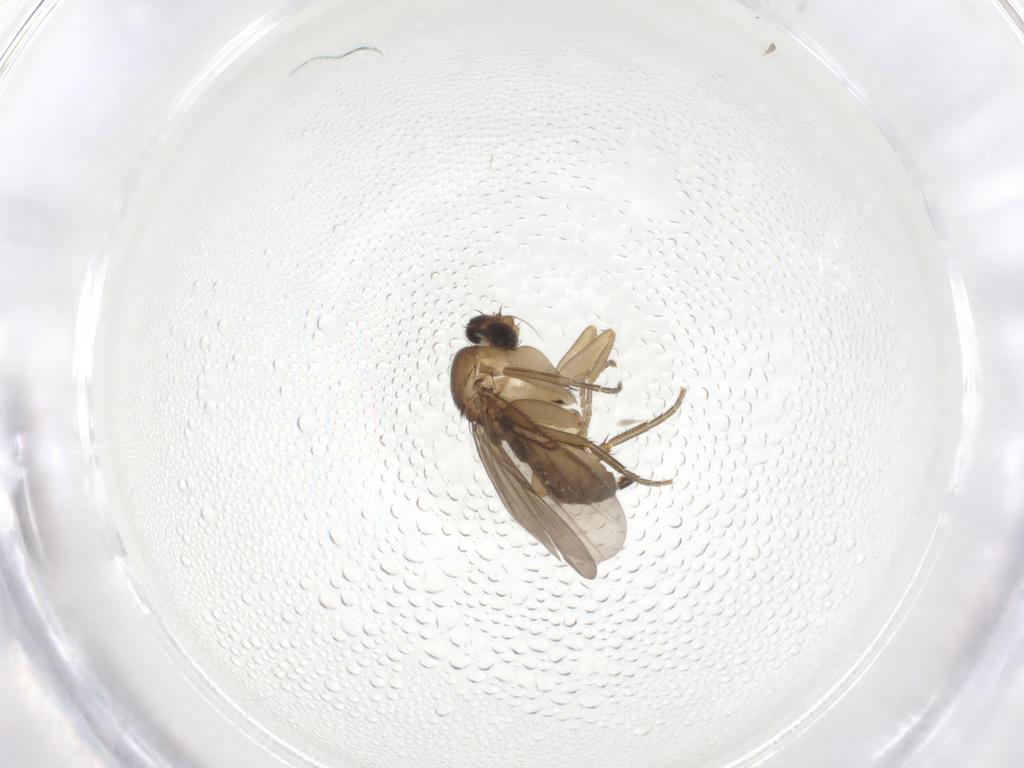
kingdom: Animalia
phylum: Arthropoda
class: Insecta
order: Diptera
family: Phoridae
